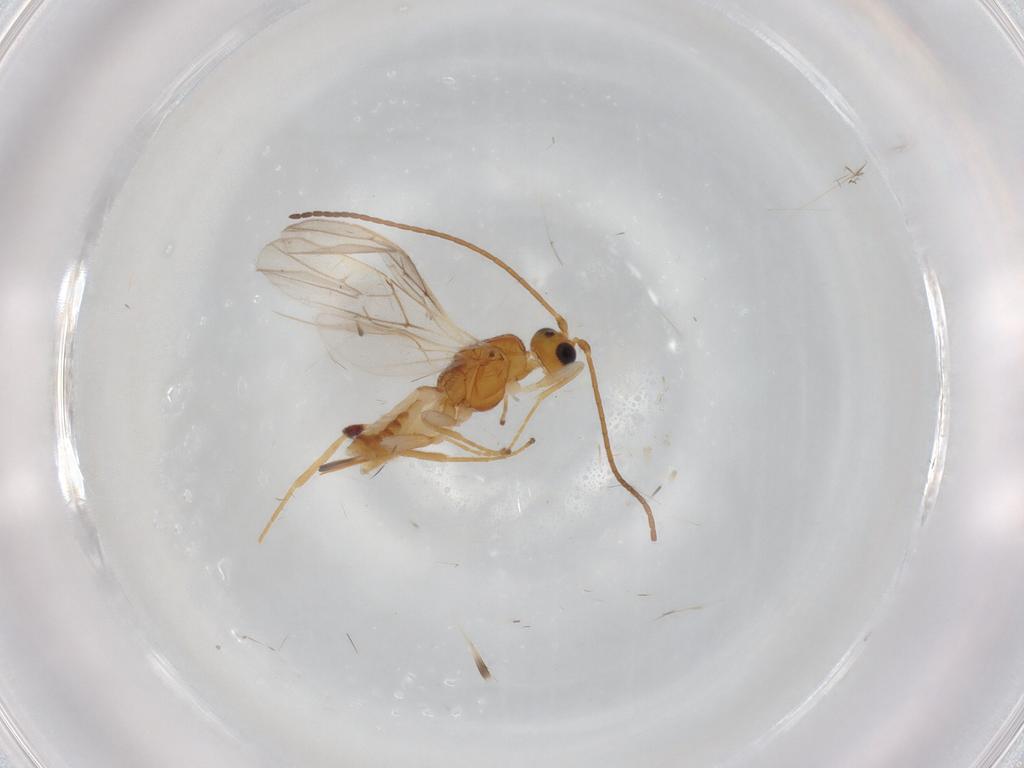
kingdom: Animalia
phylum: Arthropoda
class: Insecta
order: Hymenoptera
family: Braconidae
